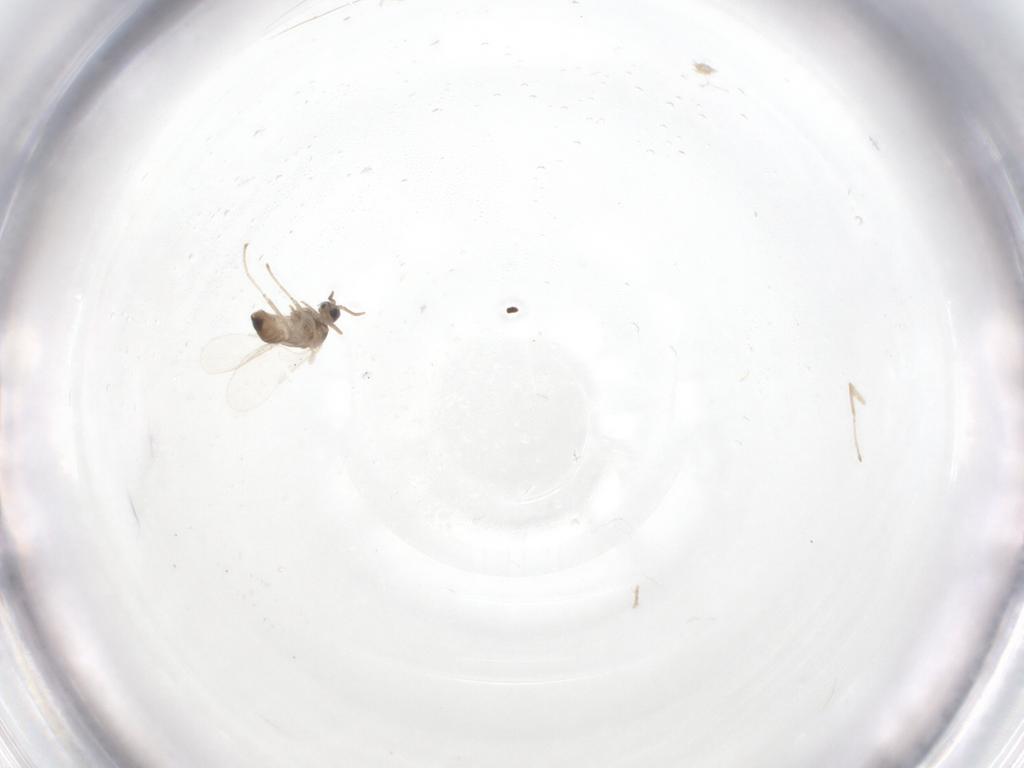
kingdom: Animalia
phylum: Arthropoda
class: Insecta
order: Diptera
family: Cecidomyiidae
